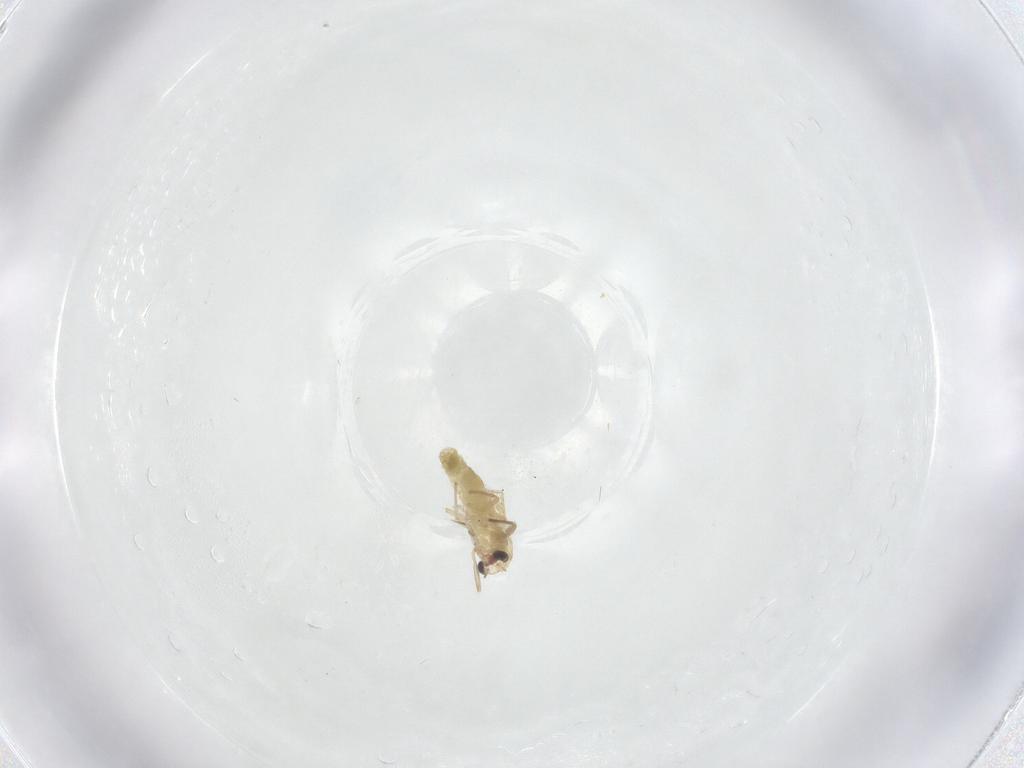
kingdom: Animalia
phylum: Arthropoda
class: Insecta
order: Diptera
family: Chironomidae
